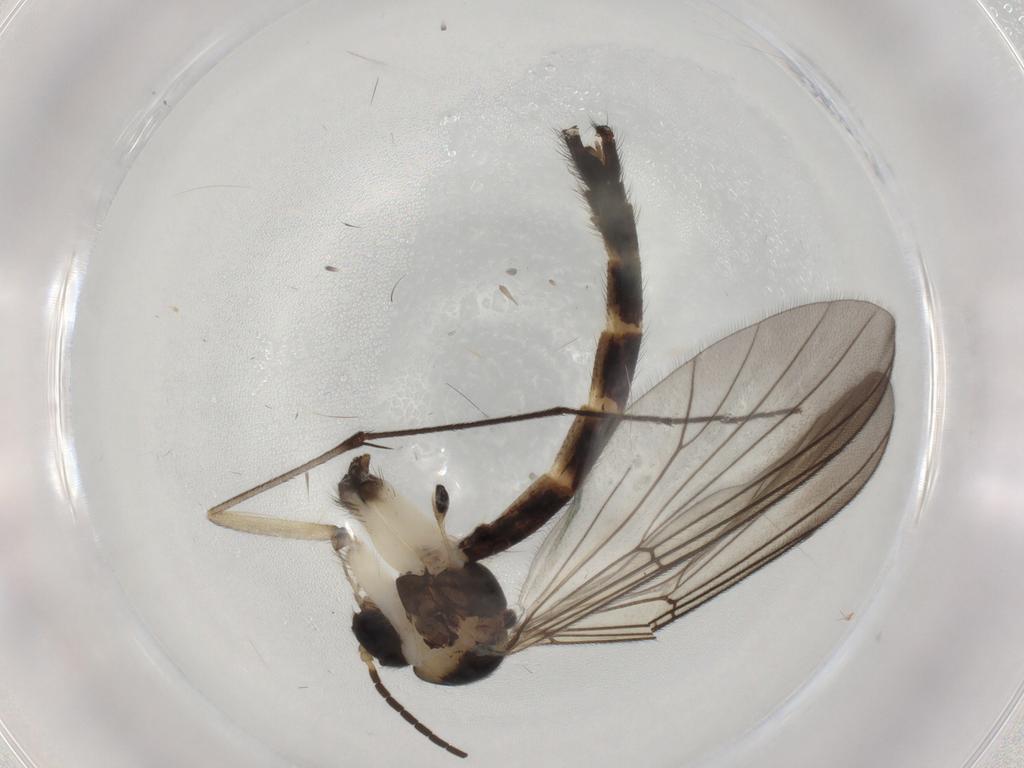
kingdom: Animalia
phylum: Arthropoda
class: Insecta
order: Diptera
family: Mycetophilidae
